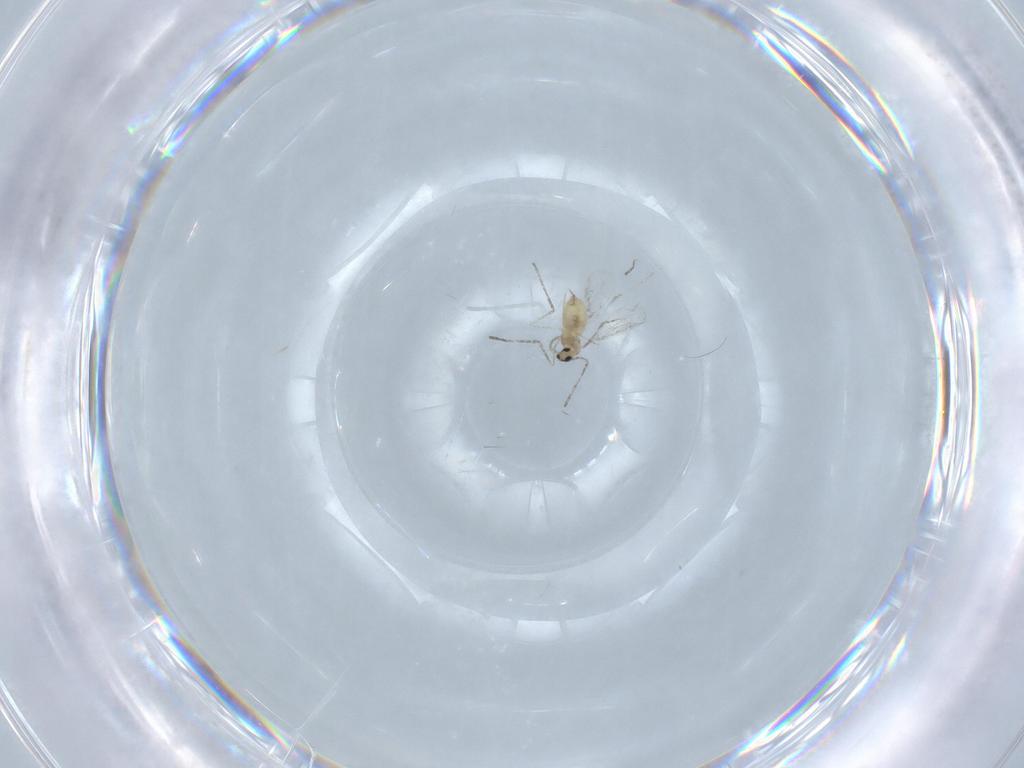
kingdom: Animalia
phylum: Arthropoda
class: Insecta
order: Diptera
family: Cecidomyiidae
